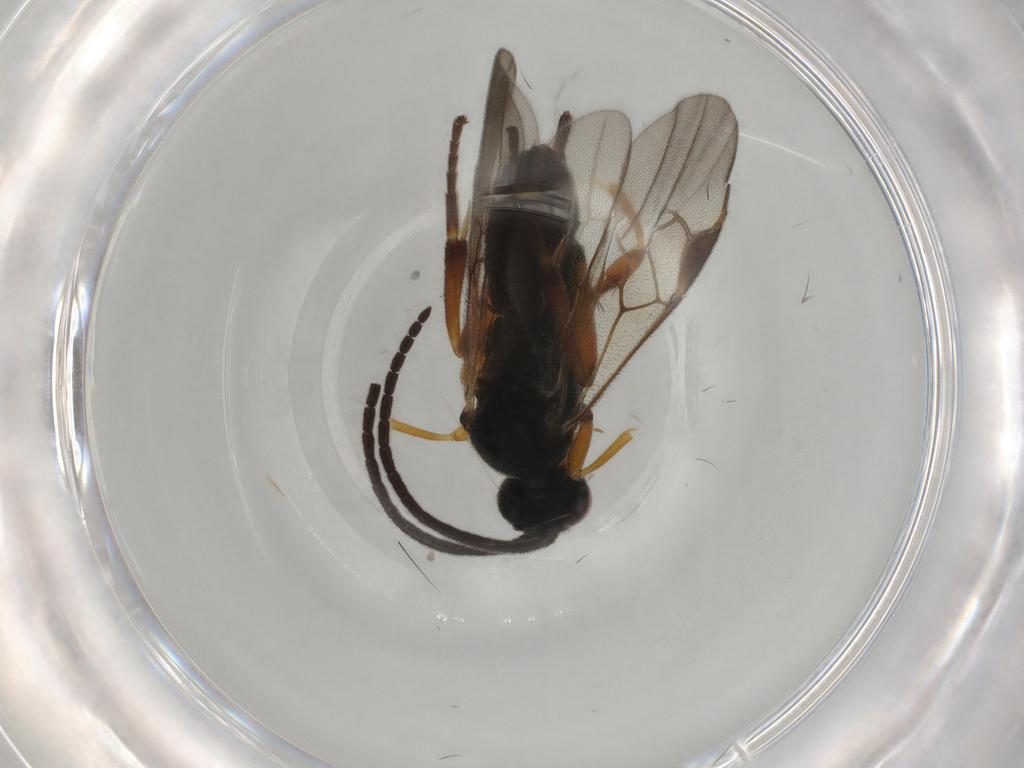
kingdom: Animalia
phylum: Arthropoda
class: Insecta
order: Hymenoptera
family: Braconidae
